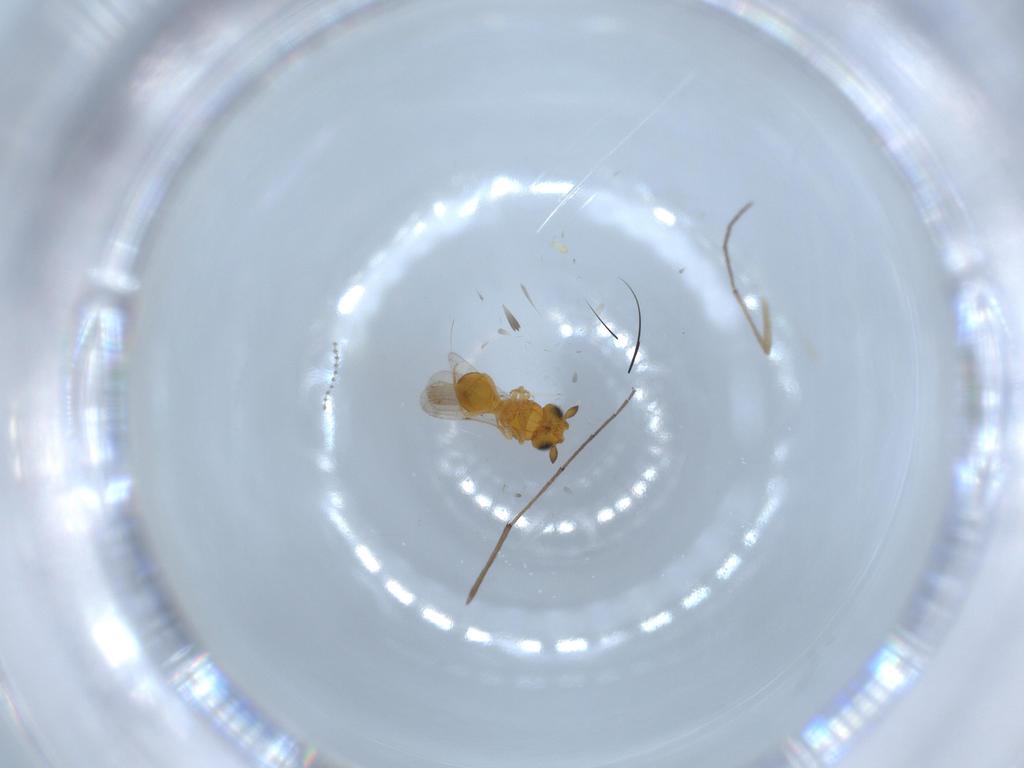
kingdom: Animalia
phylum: Arthropoda
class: Insecta
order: Hymenoptera
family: Scelionidae
